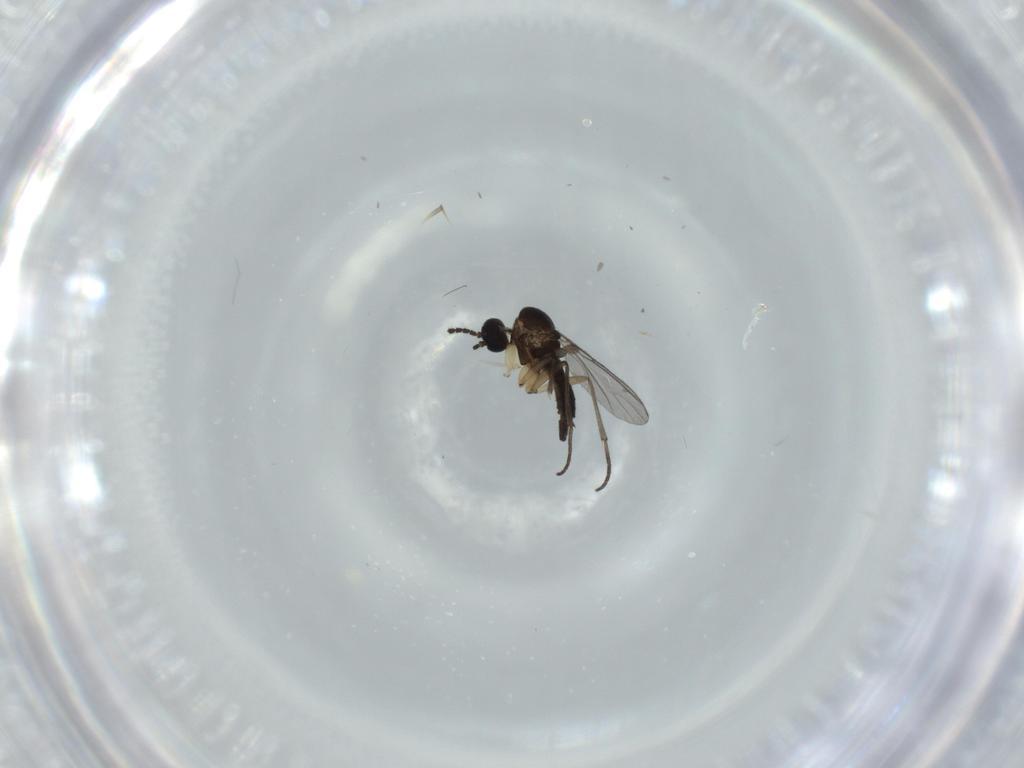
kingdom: Animalia
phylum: Arthropoda
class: Insecta
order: Diptera
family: Sciaridae
